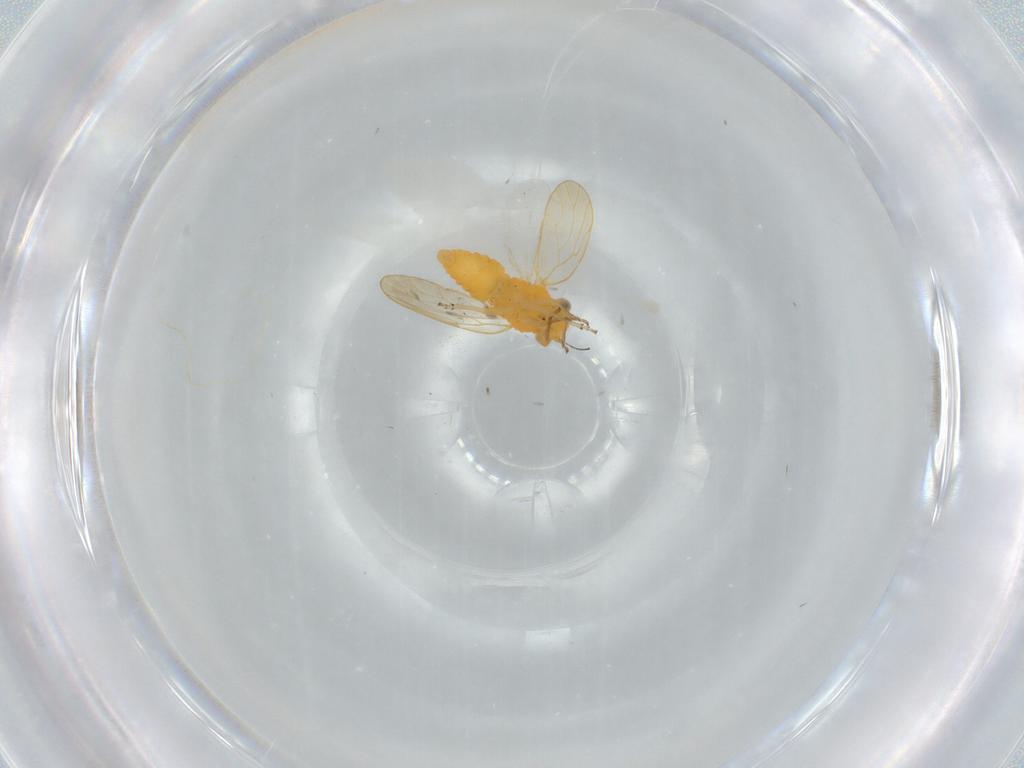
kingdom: Animalia
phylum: Arthropoda
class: Insecta
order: Hemiptera
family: Psyllidae
